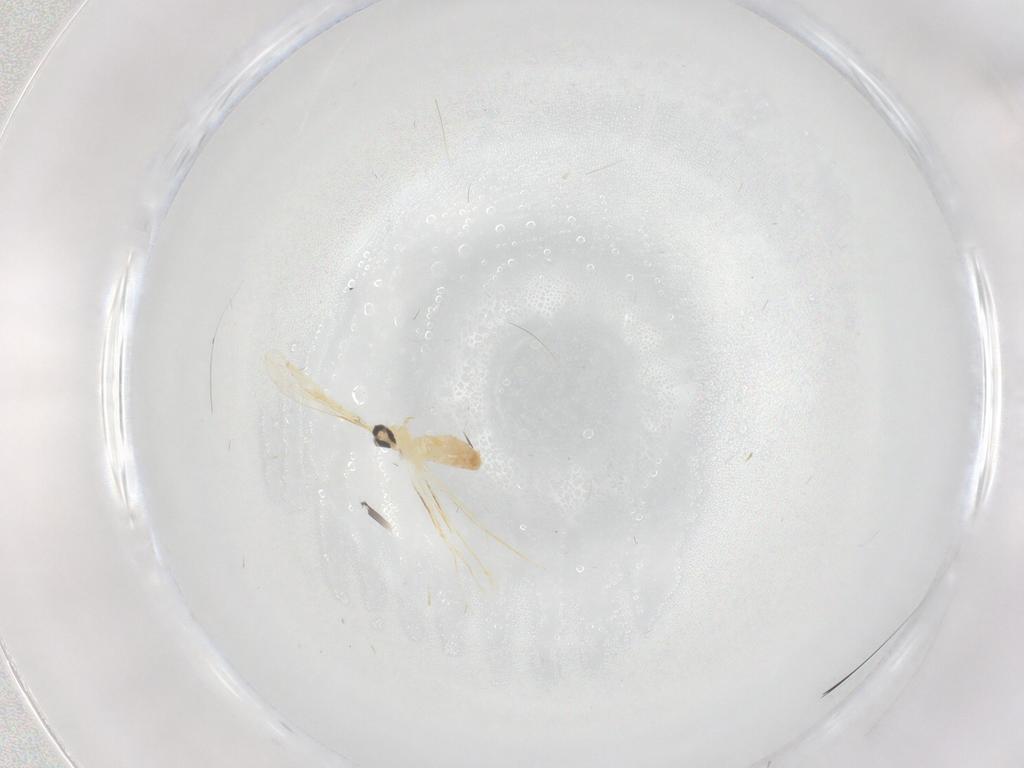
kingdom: Animalia
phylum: Arthropoda
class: Insecta
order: Diptera
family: Cecidomyiidae
